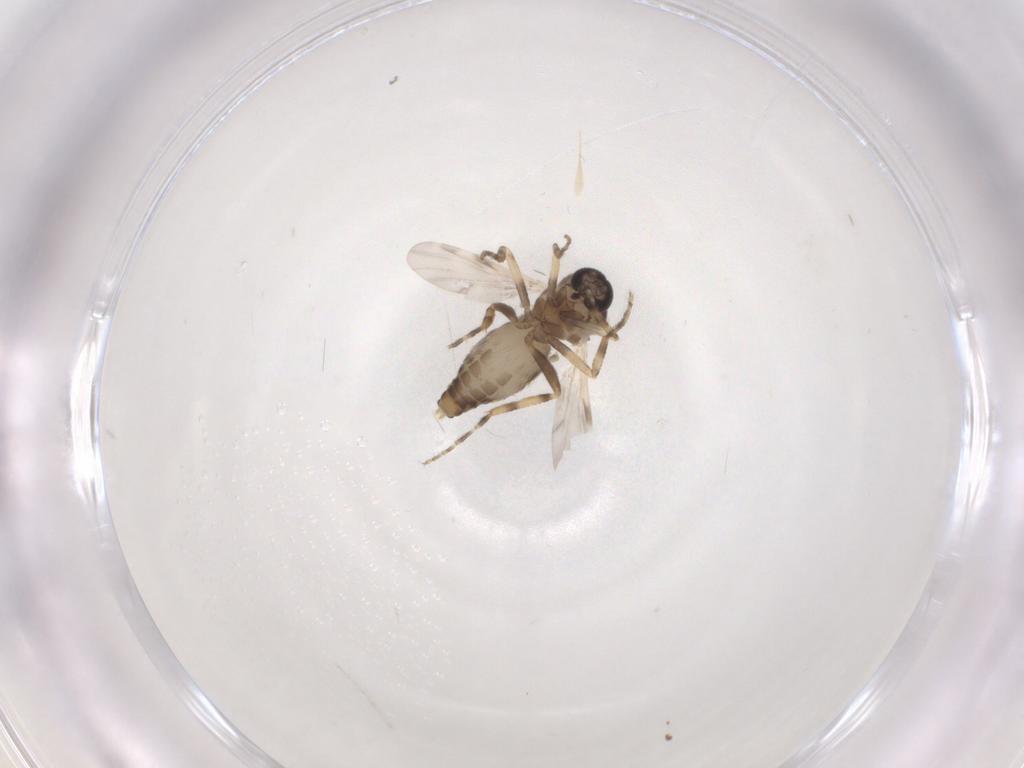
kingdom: Animalia
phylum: Arthropoda
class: Insecta
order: Diptera
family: Ceratopogonidae
